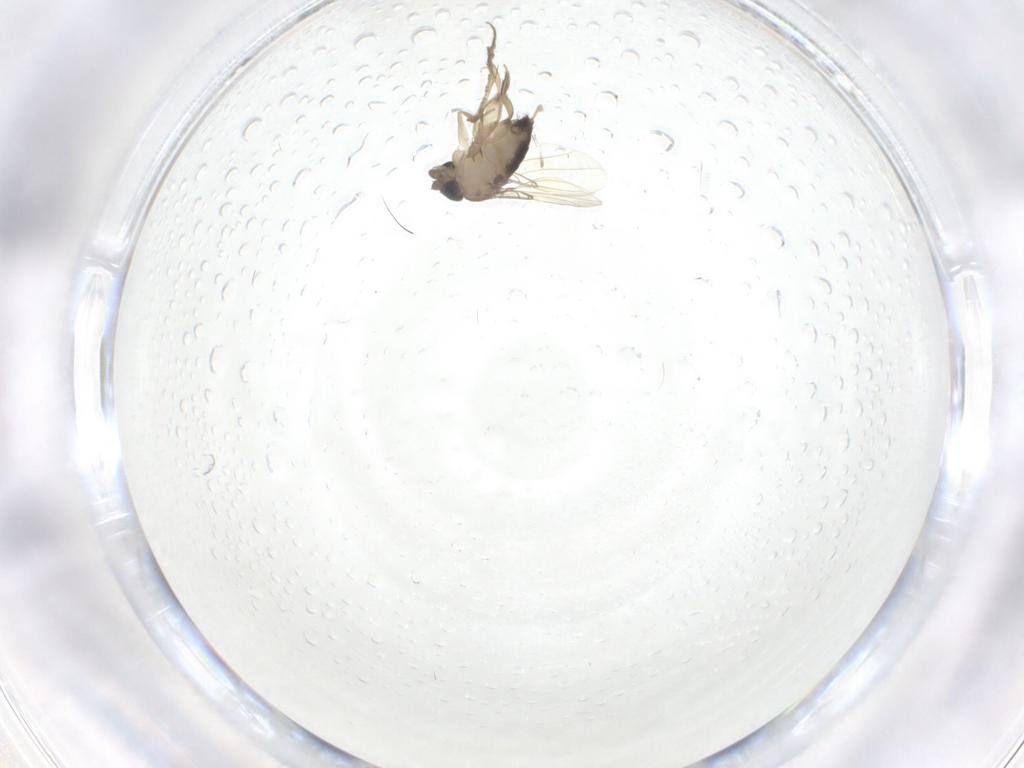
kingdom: Animalia
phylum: Arthropoda
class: Insecta
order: Diptera
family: Phoridae
